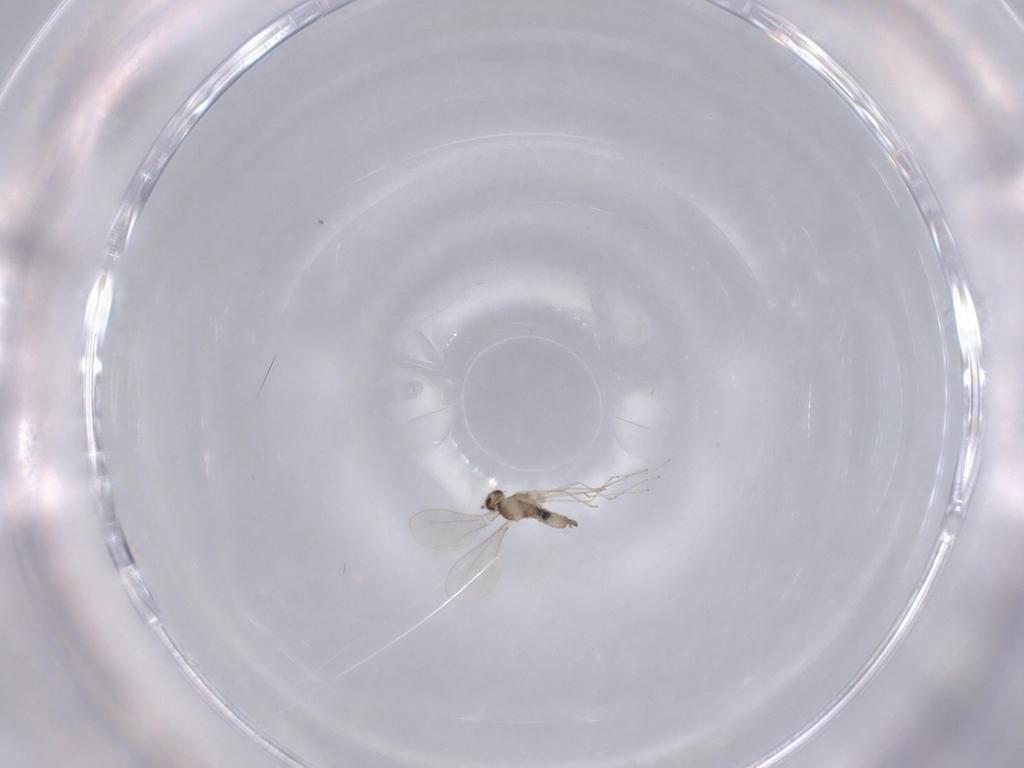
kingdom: Animalia
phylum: Arthropoda
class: Insecta
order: Diptera
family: Cecidomyiidae
